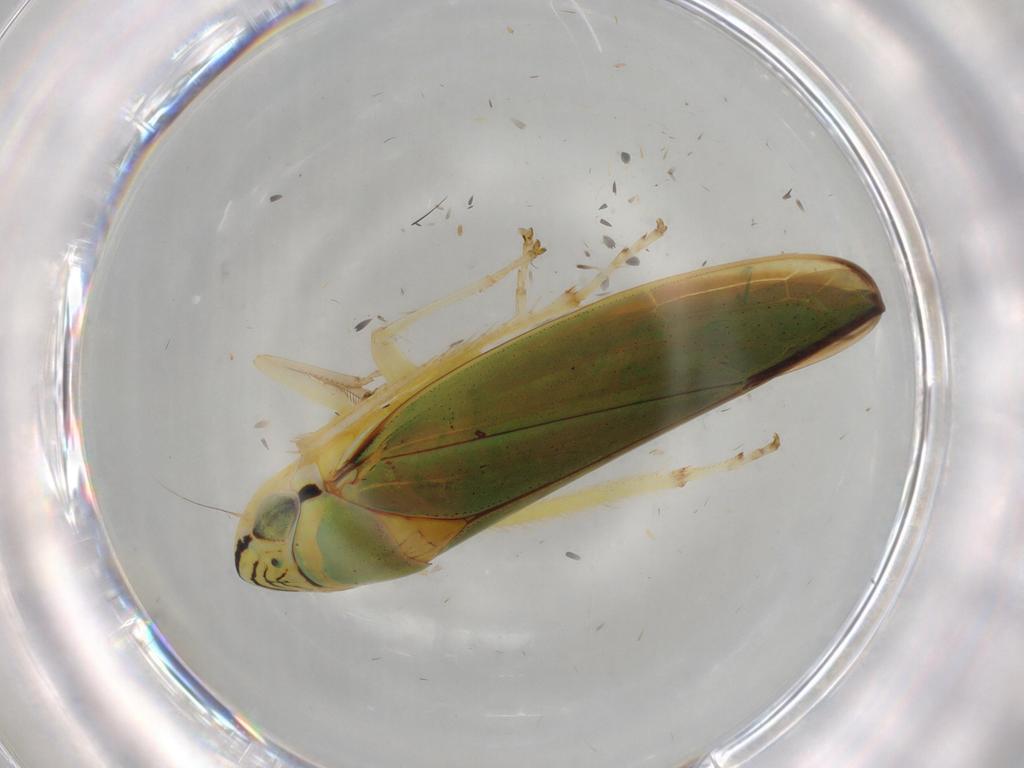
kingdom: Animalia
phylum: Arthropoda
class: Insecta
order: Hemiptera
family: Cicadellidae
